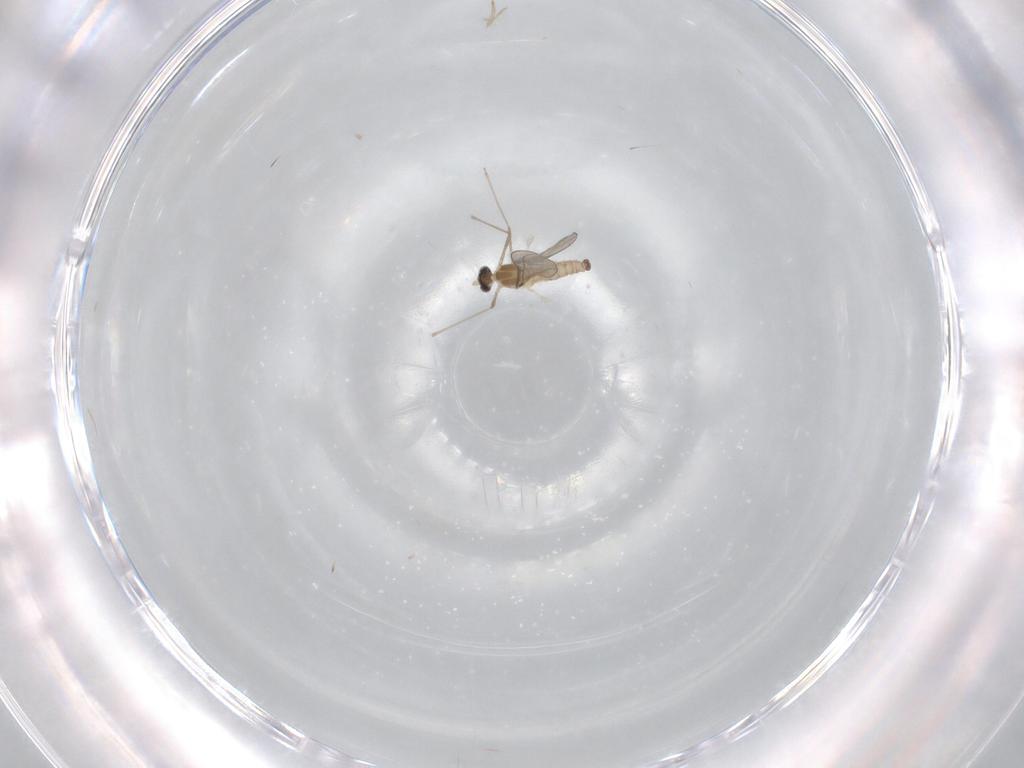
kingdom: Animalia
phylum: Arthropoda
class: Insecta
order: Diptera
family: Cecidomyiidae
